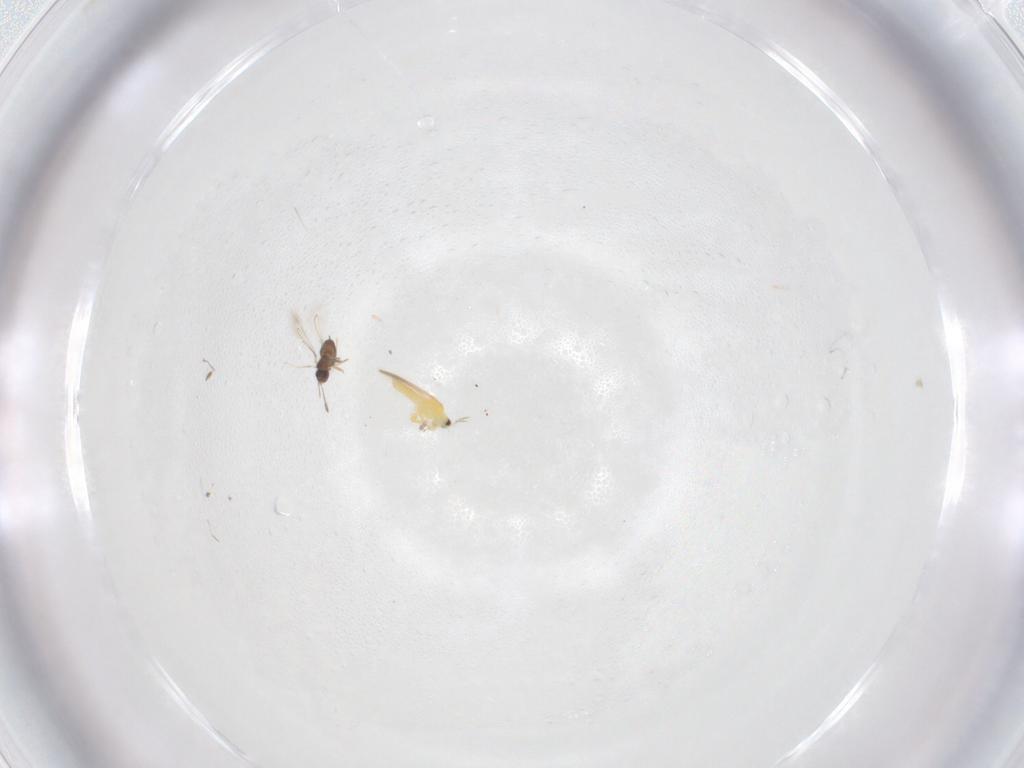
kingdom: Animalia
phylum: Arthropoda
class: Insecta
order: Thysanoptera
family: Thripidae
